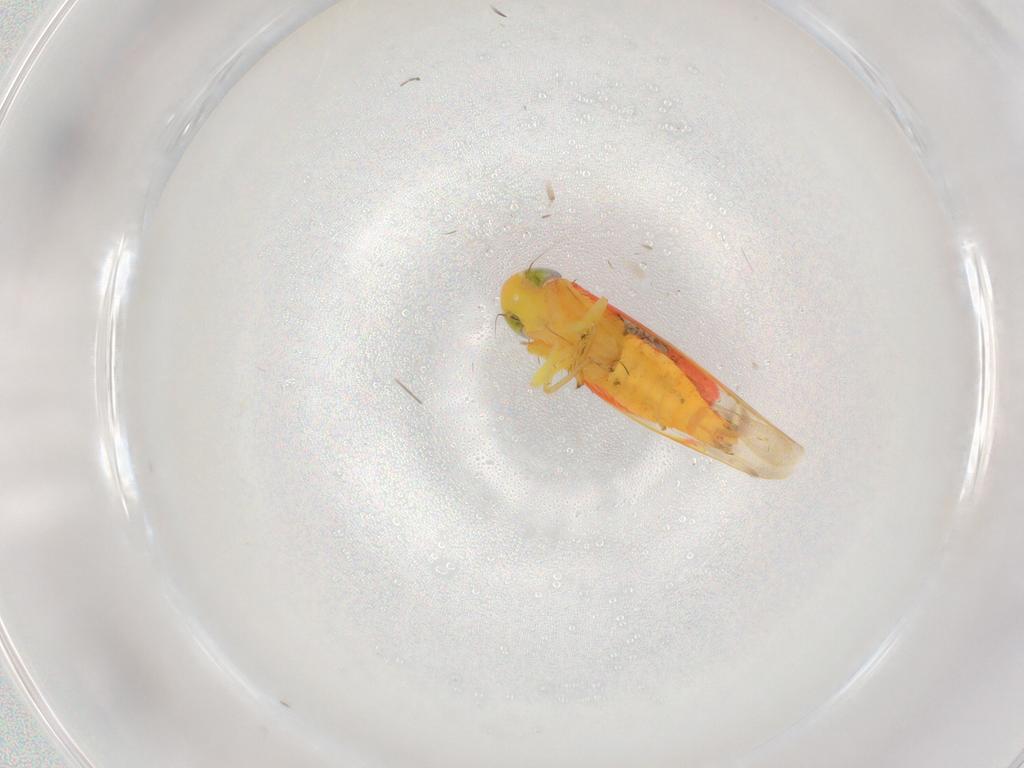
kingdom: Animalia
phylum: Arthropoda
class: Insecta
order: Hemiptera
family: Cicadellidae
